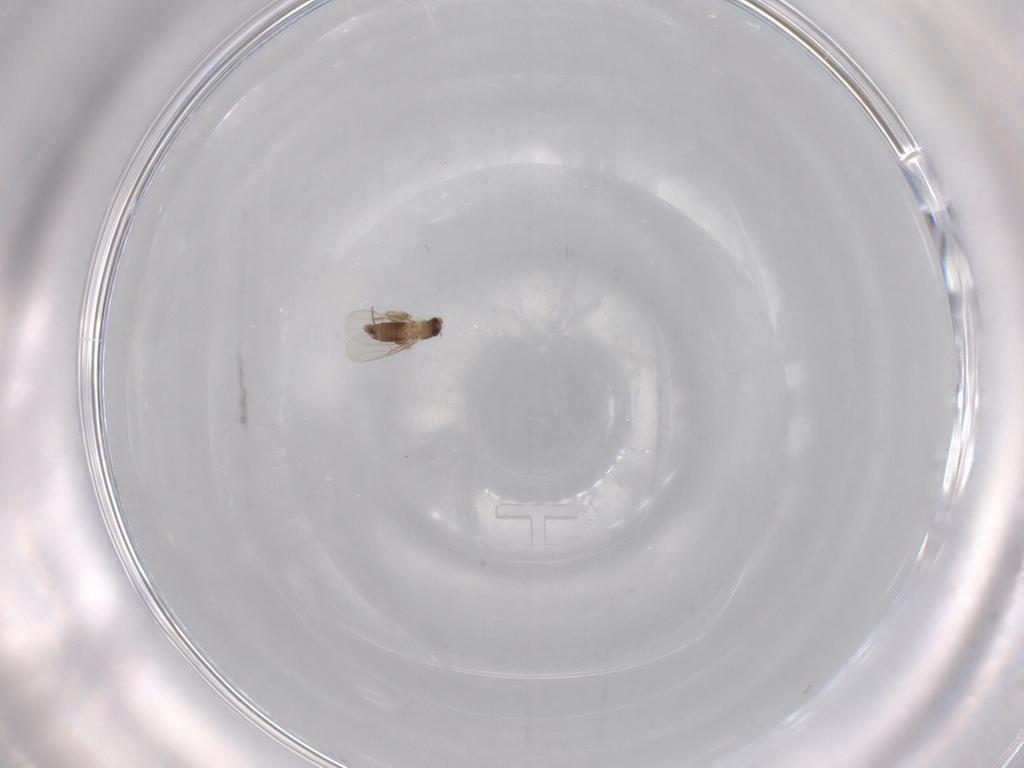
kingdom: Animalia
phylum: Arthropoda
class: Insecta
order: Diptera
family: Phoridae
